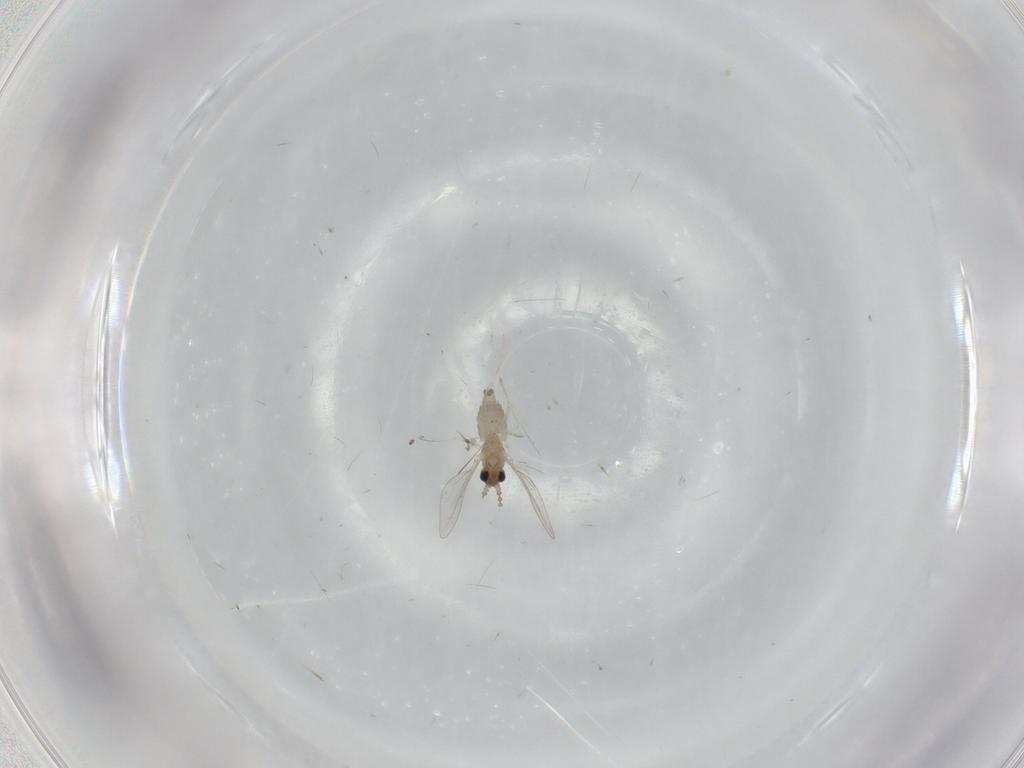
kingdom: Animalia
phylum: Arthropoda
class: Insecta
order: Diptera
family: Cecidomyiidae
